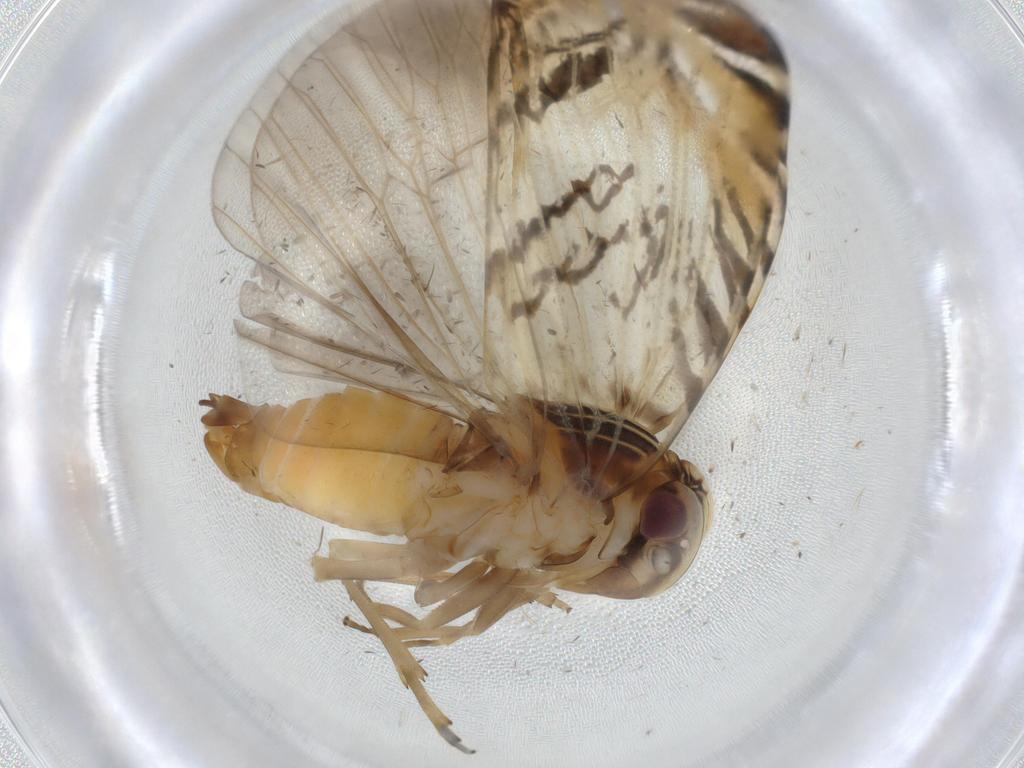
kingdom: Animalia
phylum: Arthropoda
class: Insecta
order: Hemiptera
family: Cixiidae
